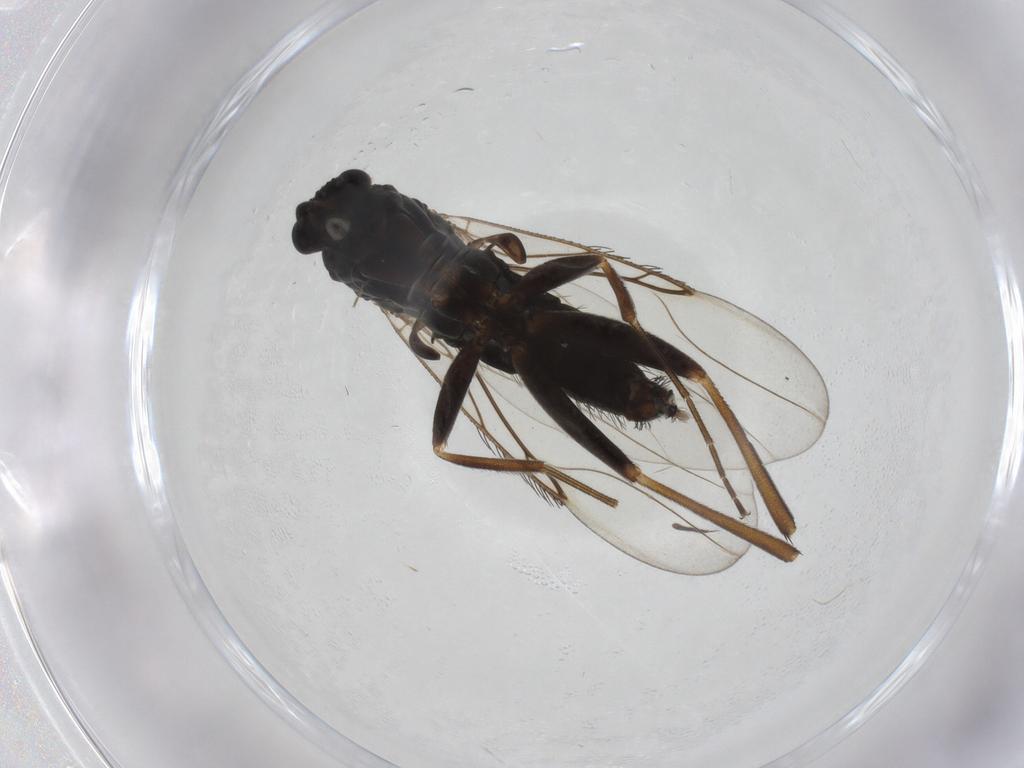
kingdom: Animalia
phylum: Arthropoda
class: Insecta
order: Diptera
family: Phoridae
